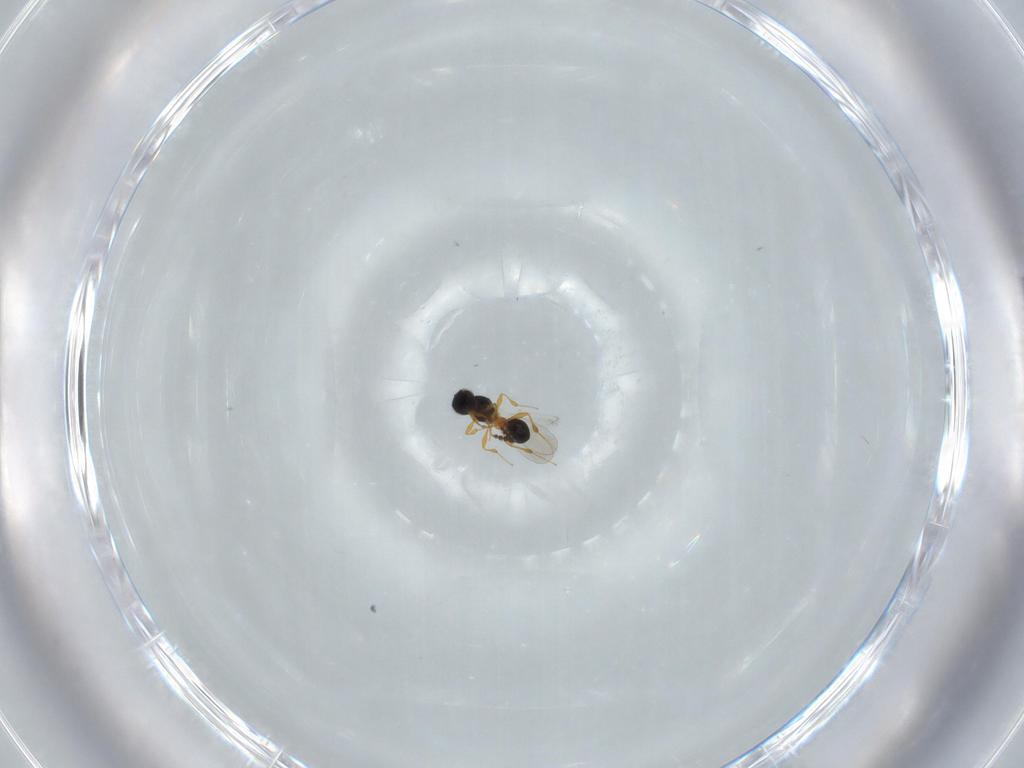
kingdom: Animalia
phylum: Arthropoda
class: Insecta
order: Hymenoptera
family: Platygastridae
